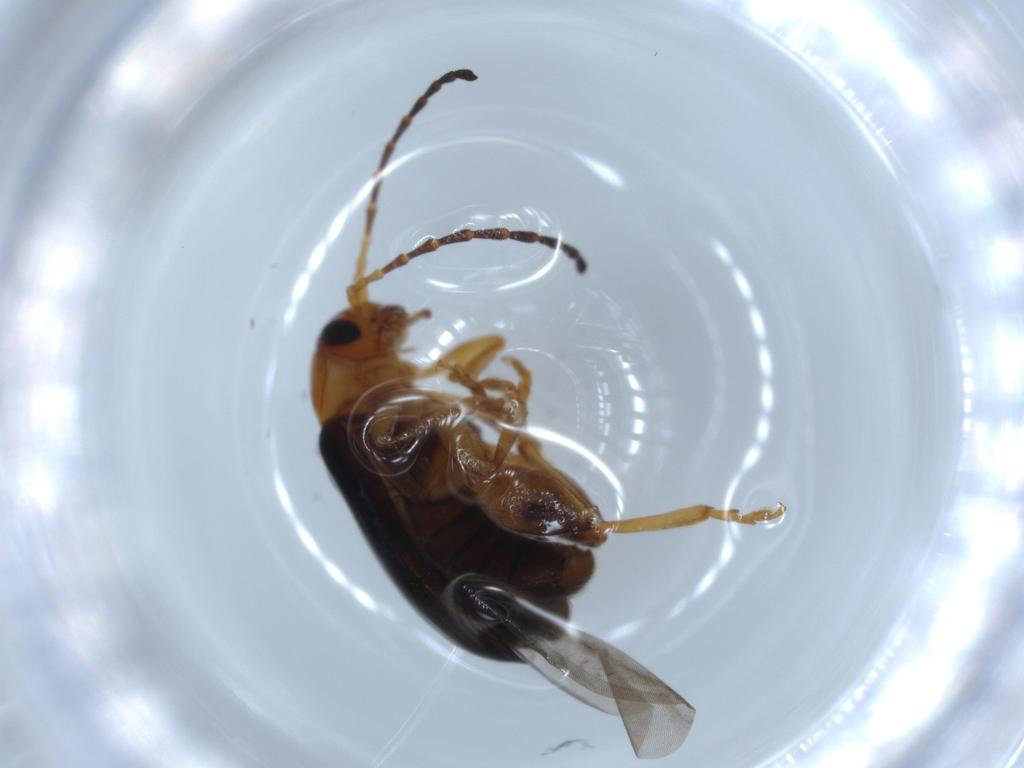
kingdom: Animalia
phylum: Arthropoda
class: Insecta
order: Coleoptera
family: Chrysomelidae
